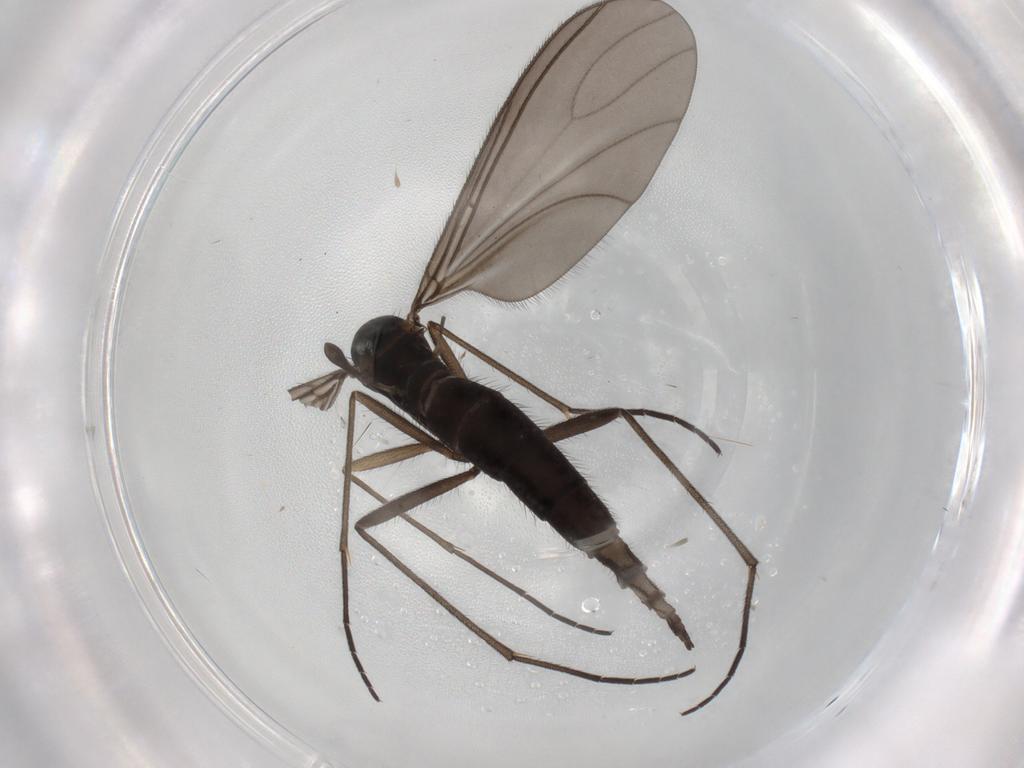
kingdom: Animalia
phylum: Arthropoda
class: Insecta
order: Diptera
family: Sciaridae
